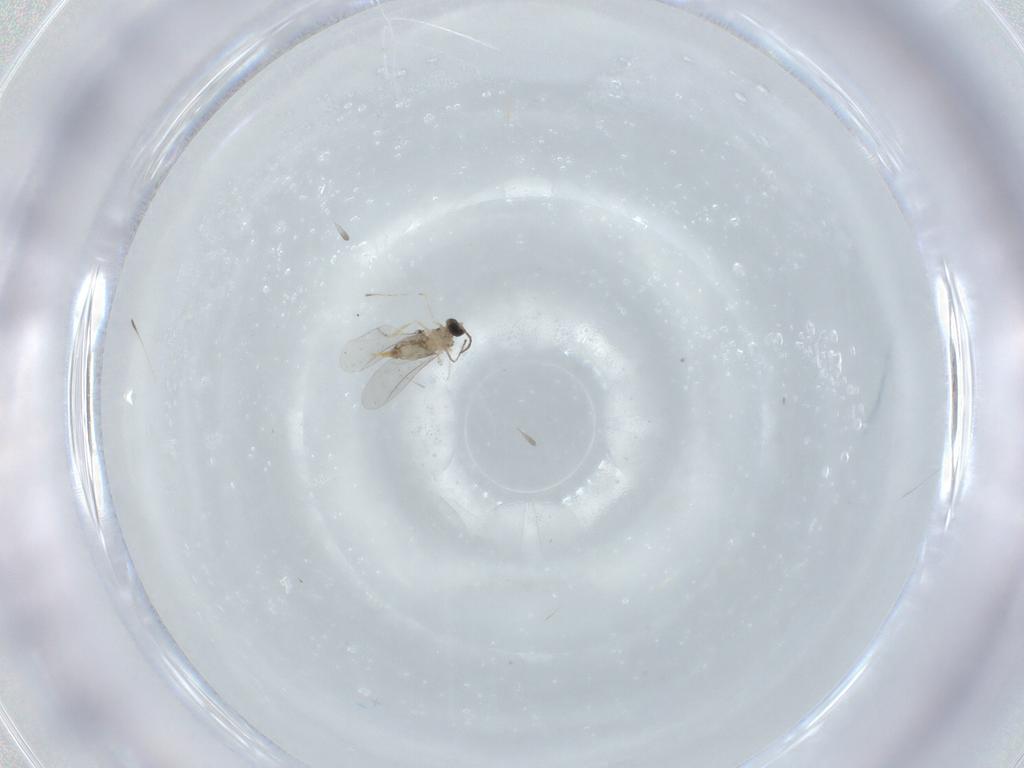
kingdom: Animalia
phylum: Arthropoda
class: Insecta
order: Diptera
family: Cecidomyiidae
